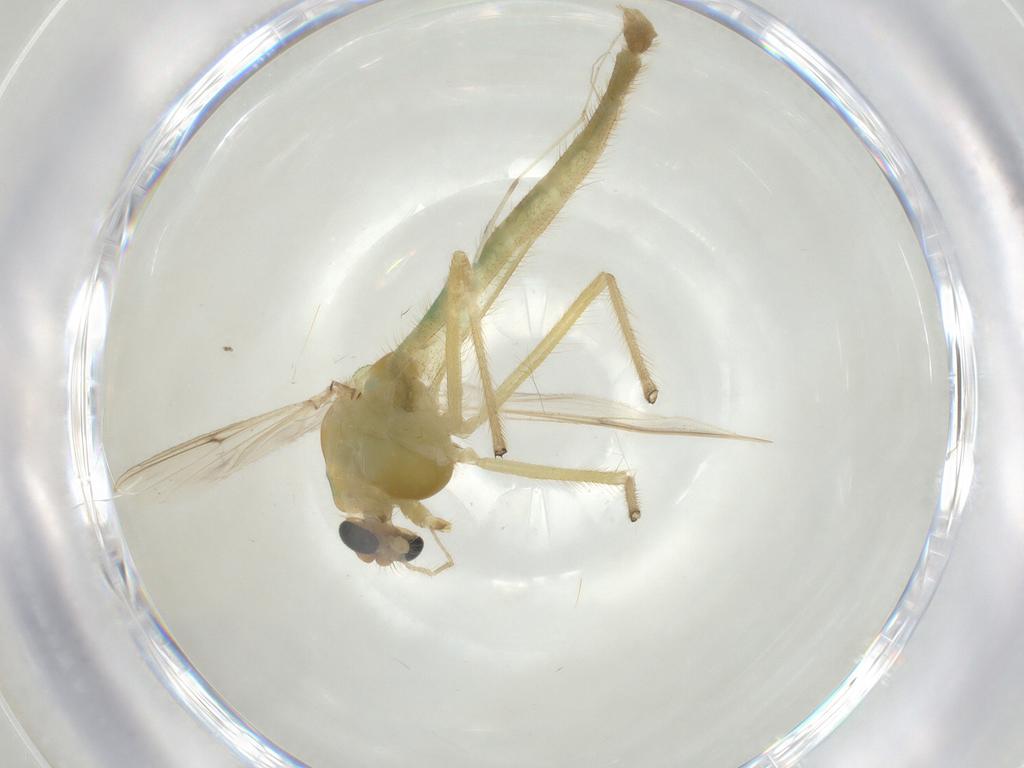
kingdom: Animalia
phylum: Arthropoda
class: Insecta
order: Diptera
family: Chironomidae
